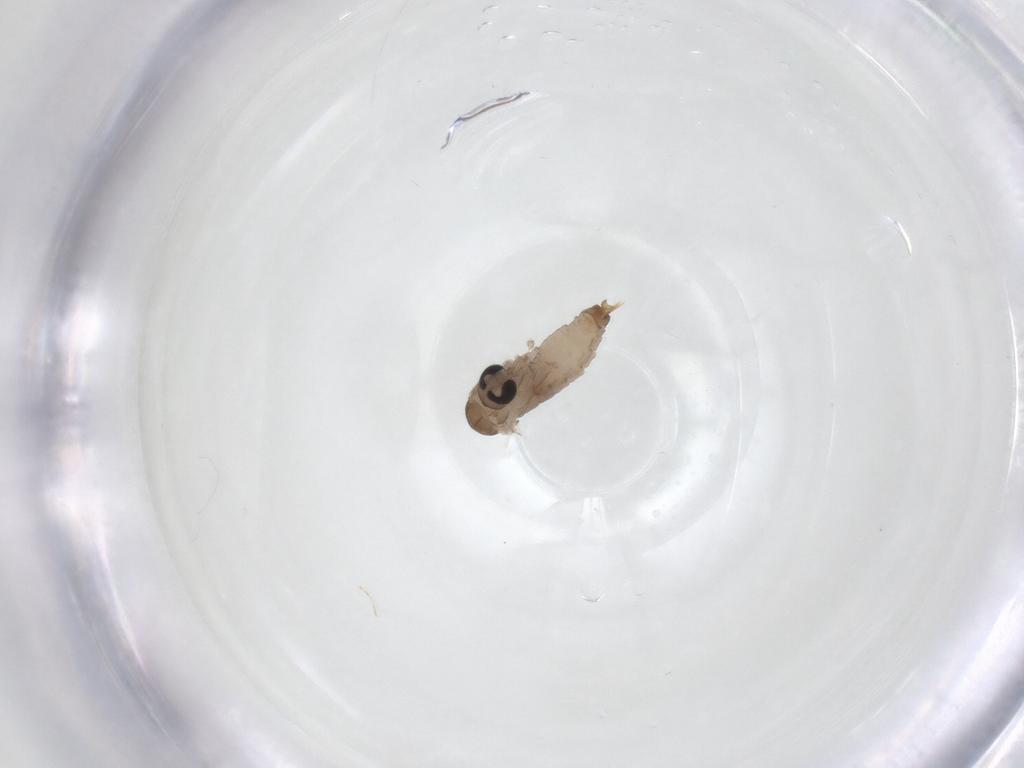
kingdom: Animalia
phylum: Arthropoda
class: Insecta
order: Diptera
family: Psychodidae
